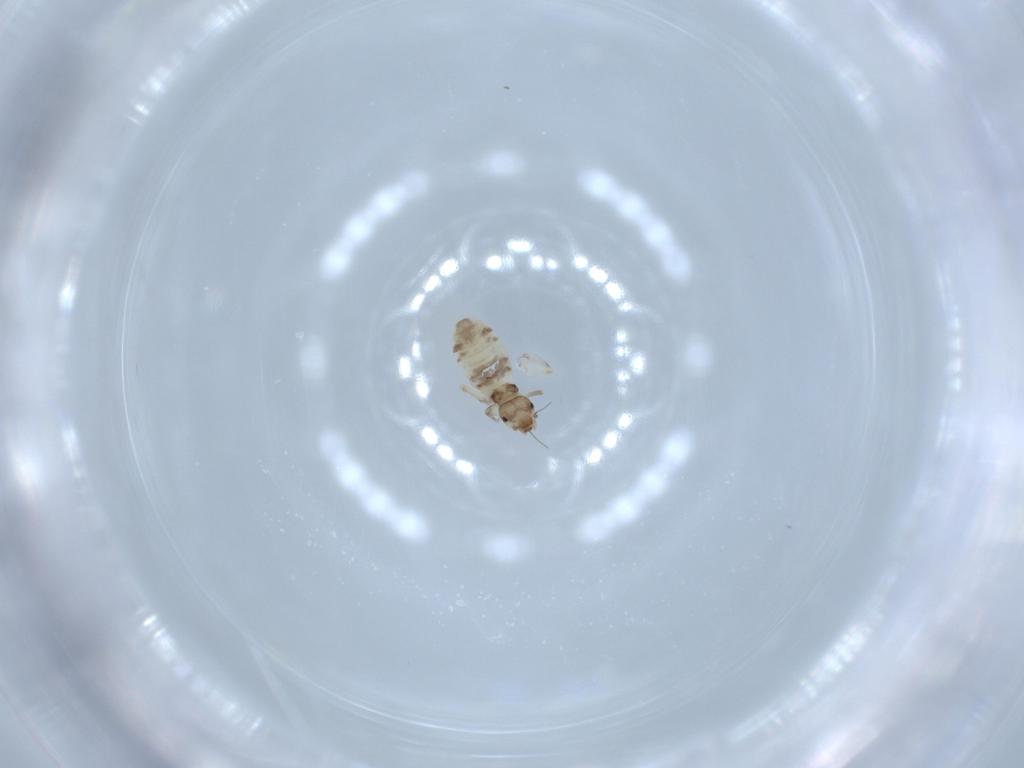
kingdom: Animalia
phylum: Arthropoda
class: Insecta
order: Psocodea
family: Liposcelididae
